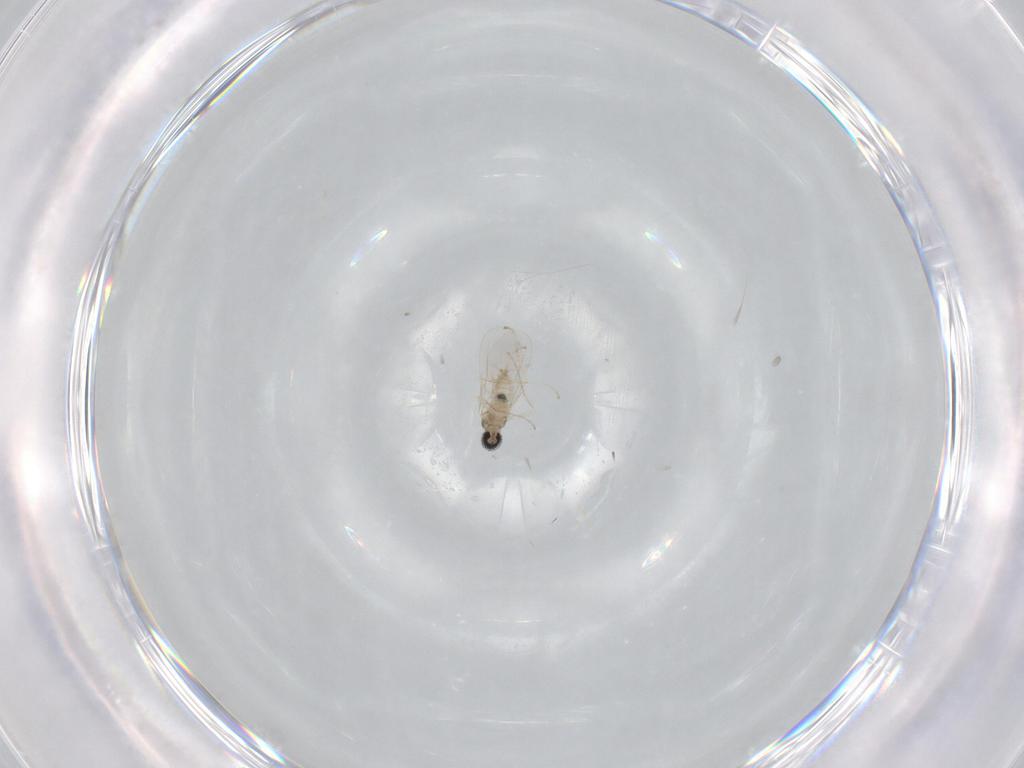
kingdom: Animalia
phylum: Arthropoda
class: Insecta
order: Diptera
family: Cecidomyiidae
